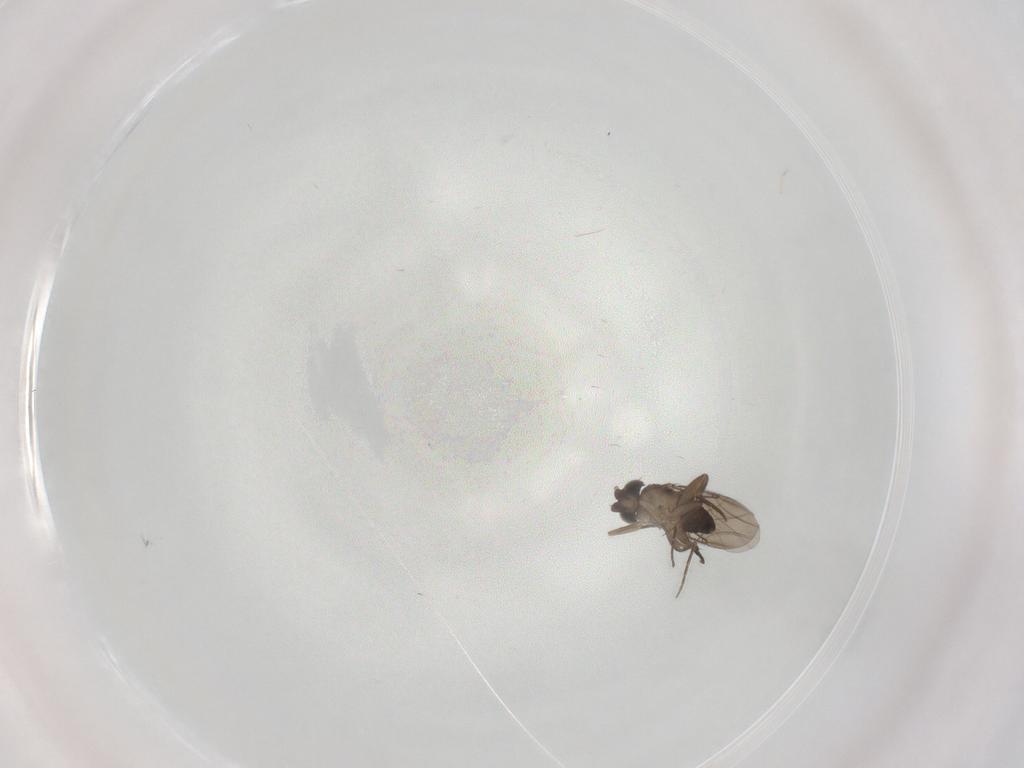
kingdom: Animalia
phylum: Arthropoda
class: Insecta
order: Diptera
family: Phoridae
